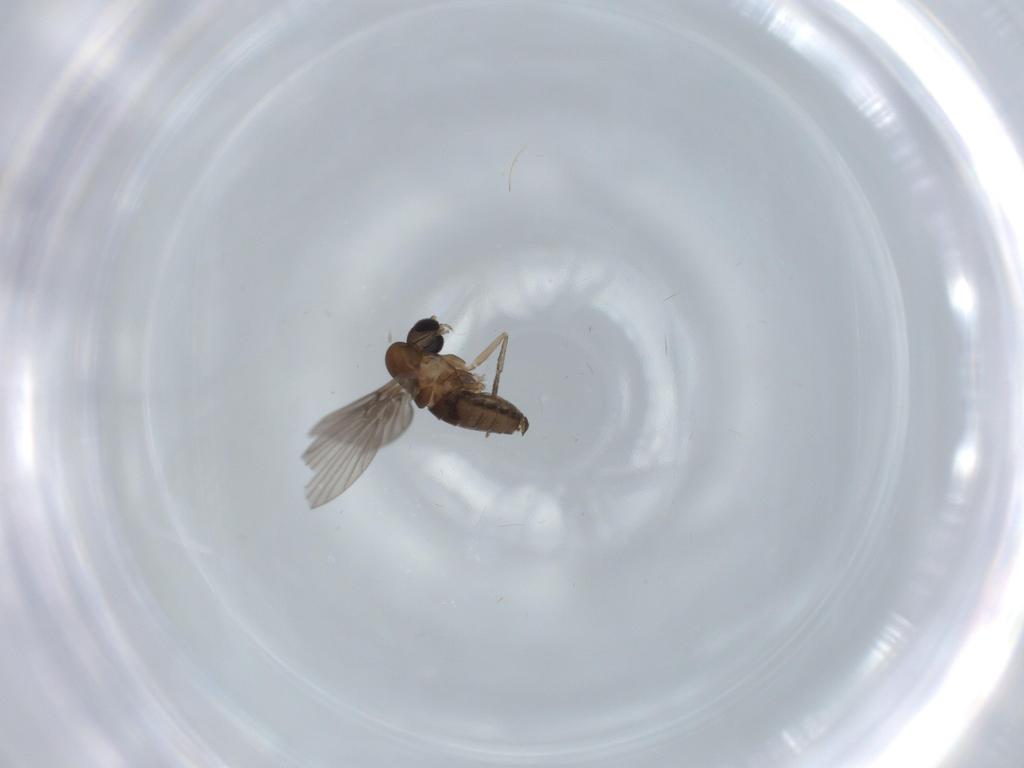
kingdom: Animalia
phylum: Arthropoda
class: Insecta
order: Diptera
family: Psychodidae
